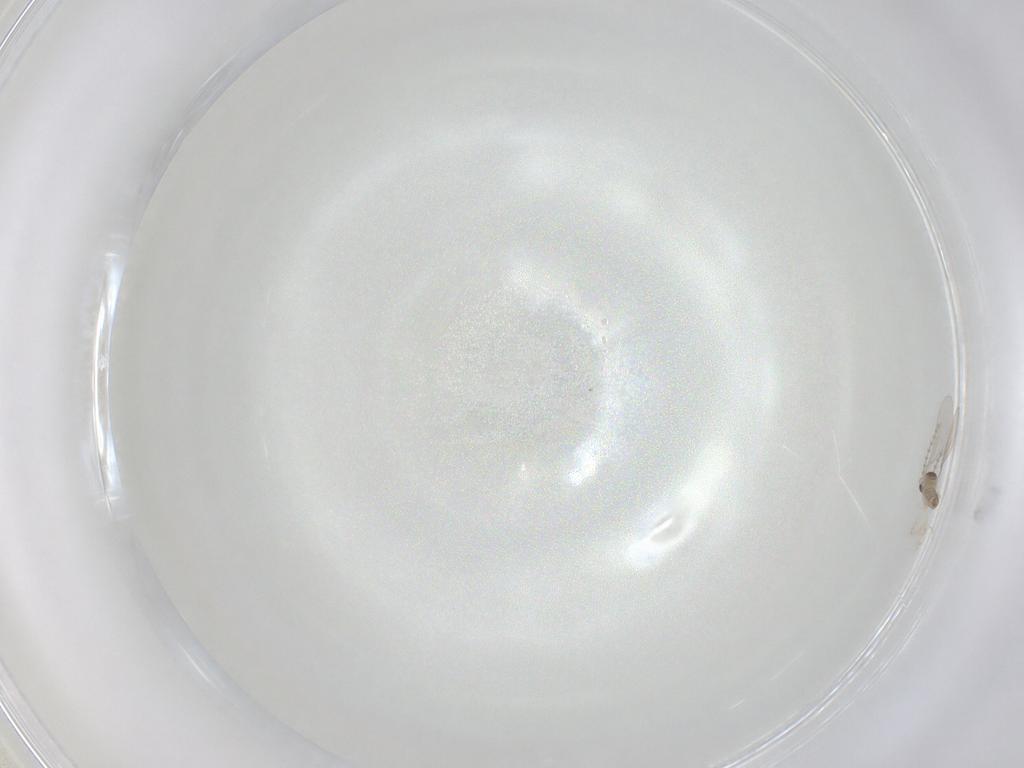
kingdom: Animalia
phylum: Arthropoda
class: Insecta
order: Diptera
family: Cecidomyiidae
